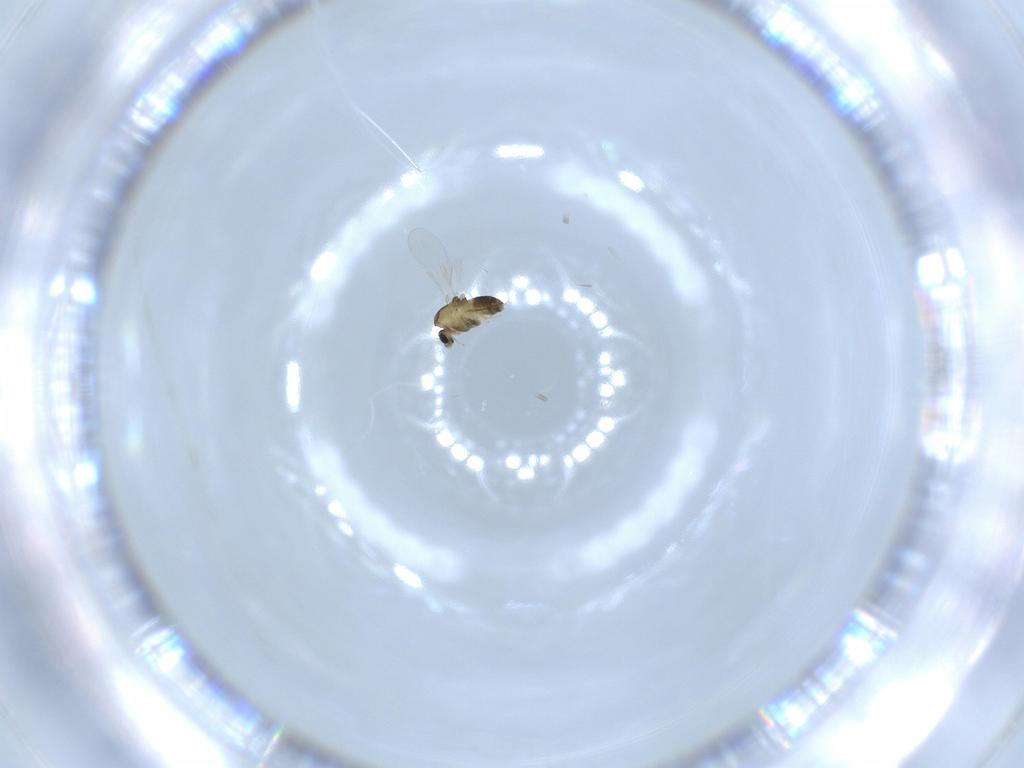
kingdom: Animalia
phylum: Arthropoda
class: Insecta
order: Diptera
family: Chironomidae
